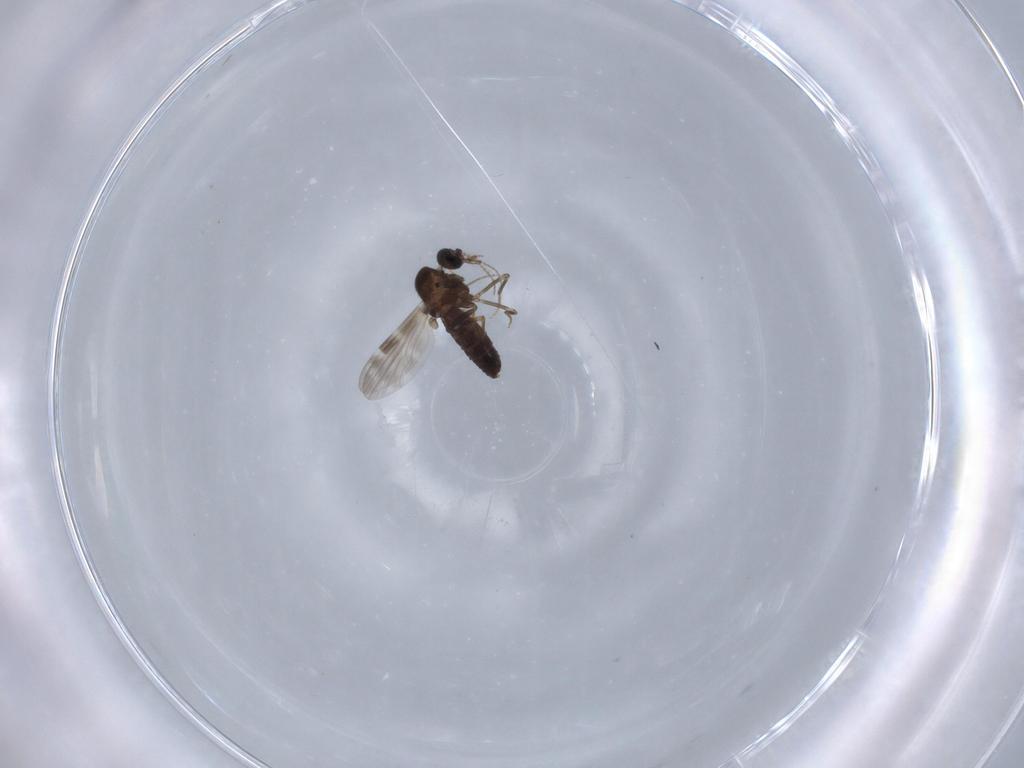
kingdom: Animalia
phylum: Arthropoda
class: Insecta
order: Diptera
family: Ceratopogonidae
